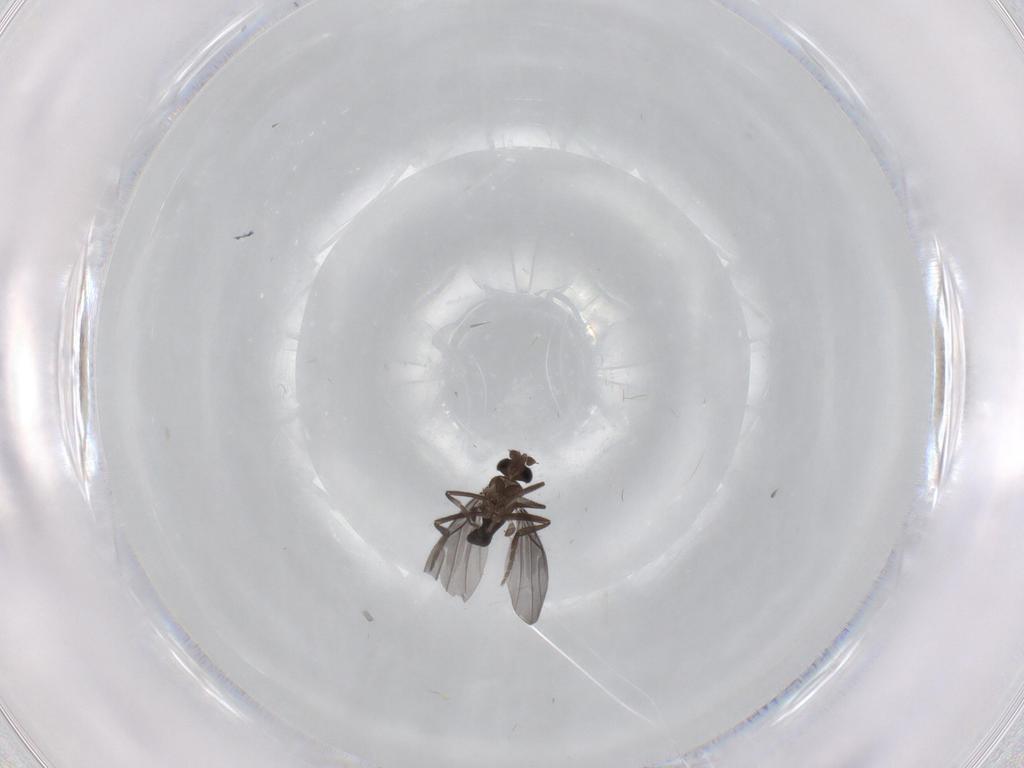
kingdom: Animalia
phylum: Arthropoda
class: Insecta
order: Diptera
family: Phoridae
